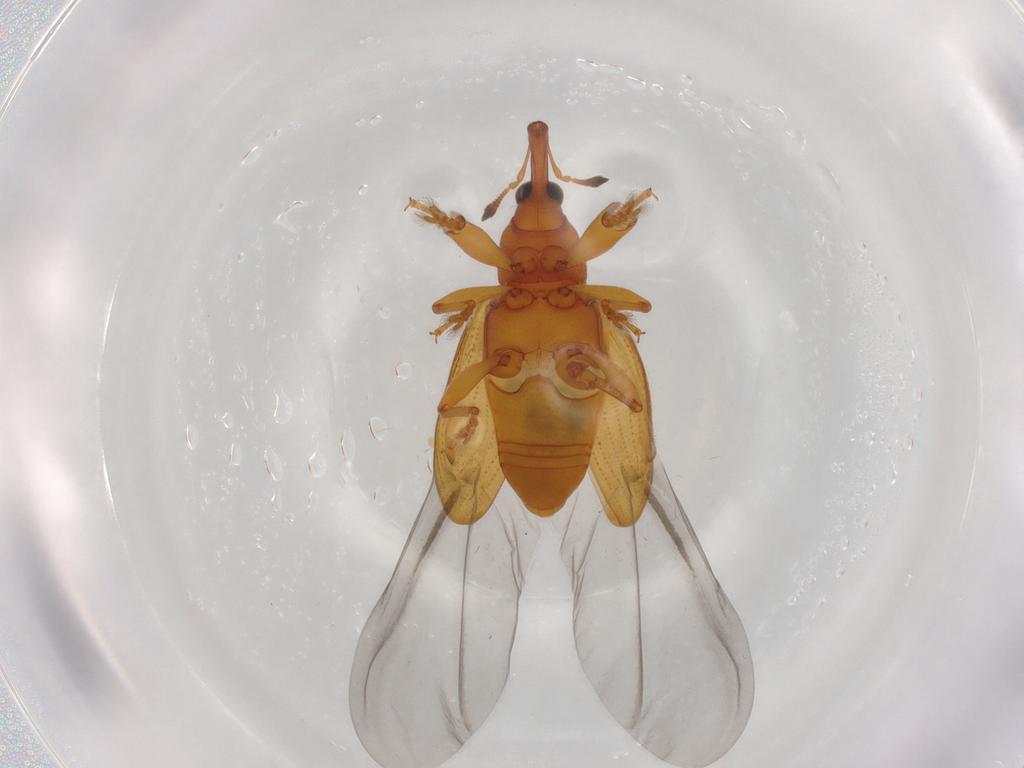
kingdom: Animalia
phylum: Arthropoda
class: Insecta
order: Coleoptera
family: Curculionidae
